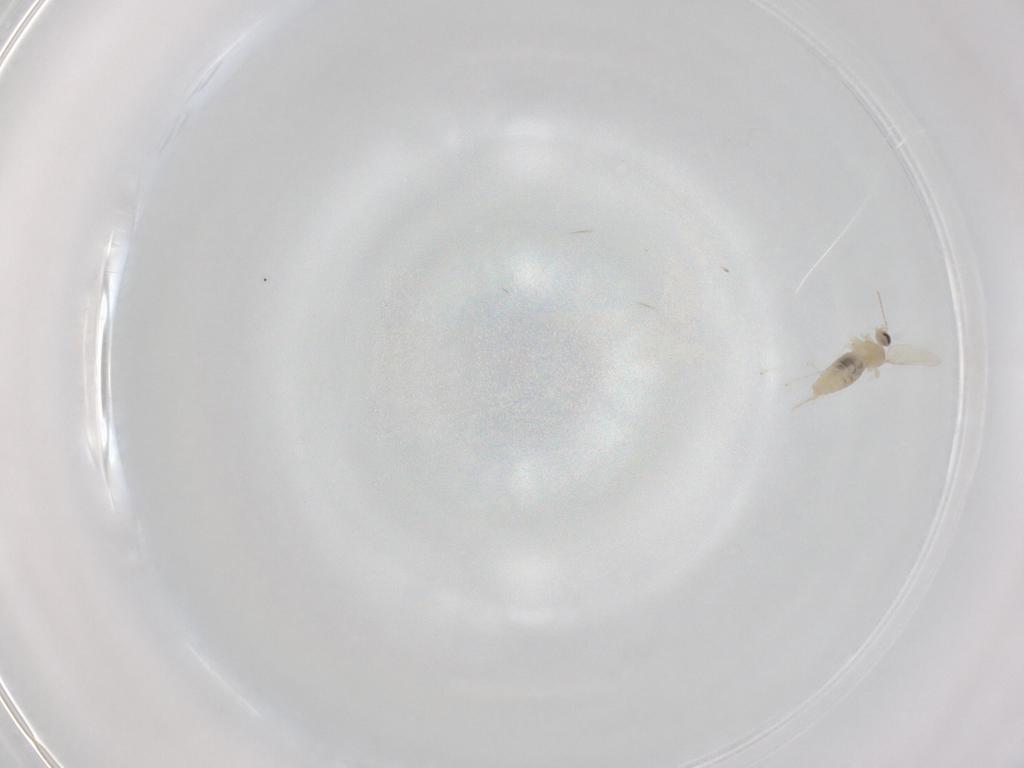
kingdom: Animalia
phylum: Arthropoda
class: Insecta
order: Diptera
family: Cecidomyiidae
